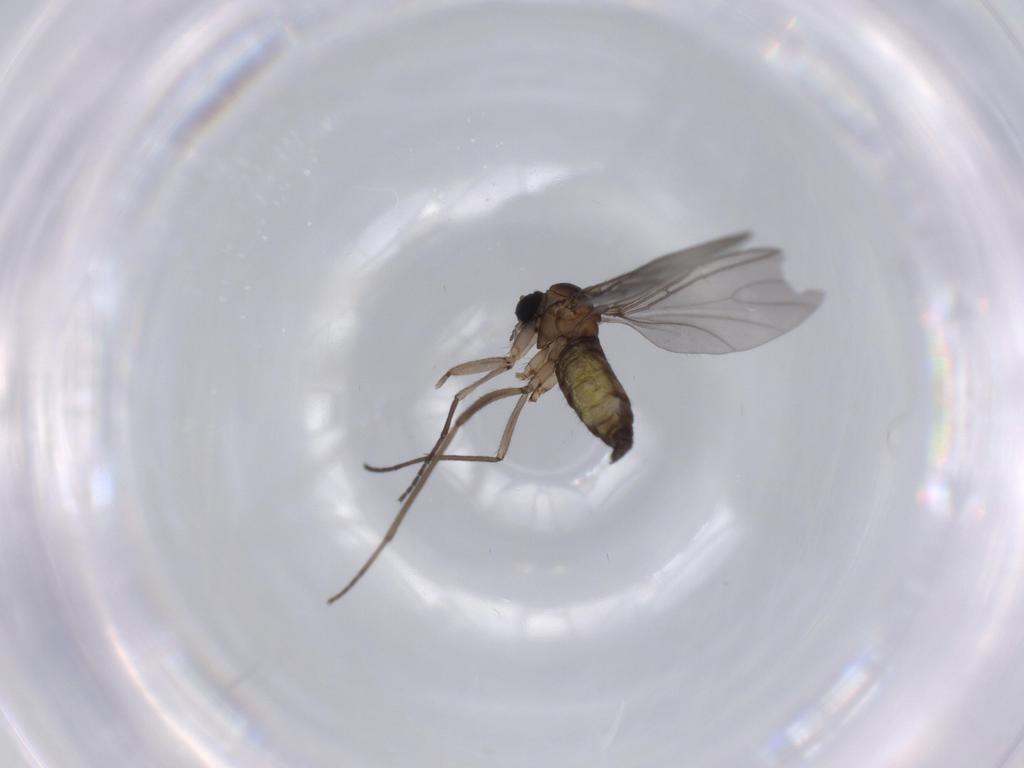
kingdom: Animalia
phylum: Arthropoda
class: Insecta
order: Diptera
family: Sciaridae
